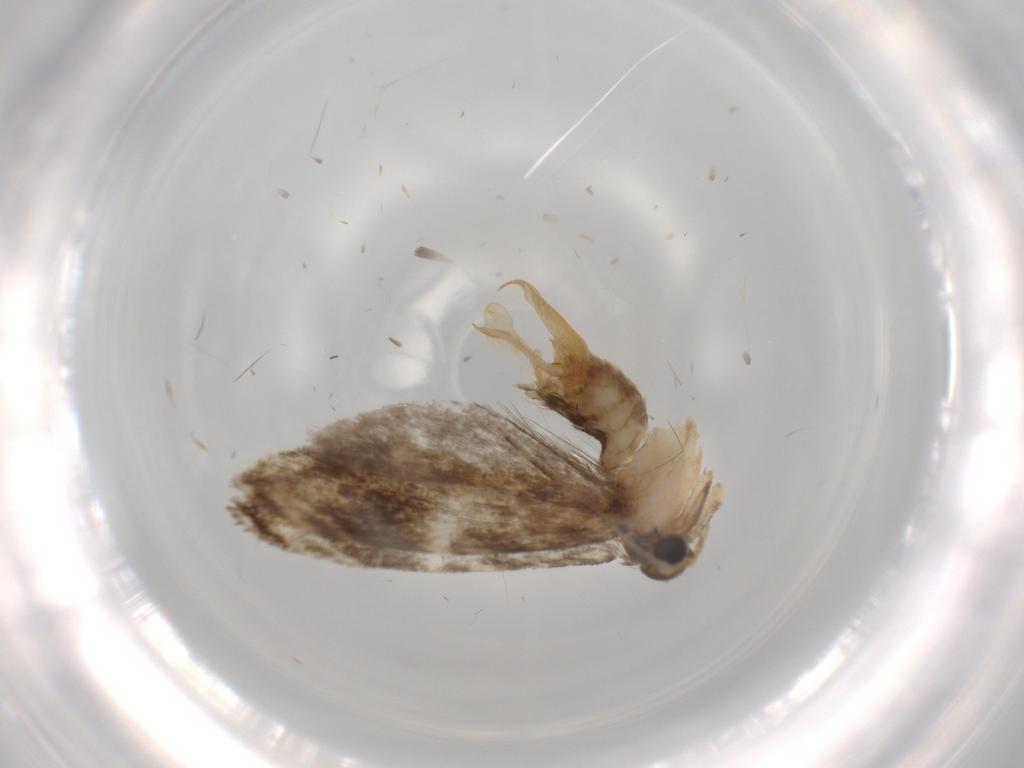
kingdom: Animalia
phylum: Arthropoda
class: Insecta
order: Lepidoptera
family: Tineidae
